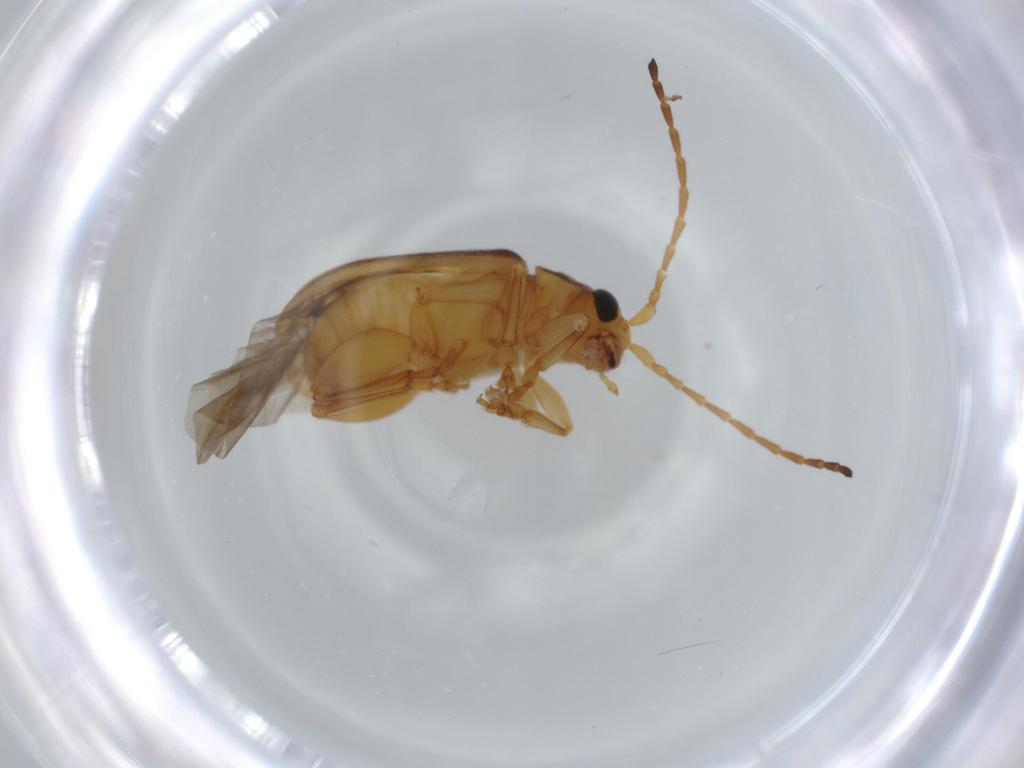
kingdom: Animalia
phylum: Arthropoda
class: Insecta
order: Coleoptera
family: Chrysomelidae
